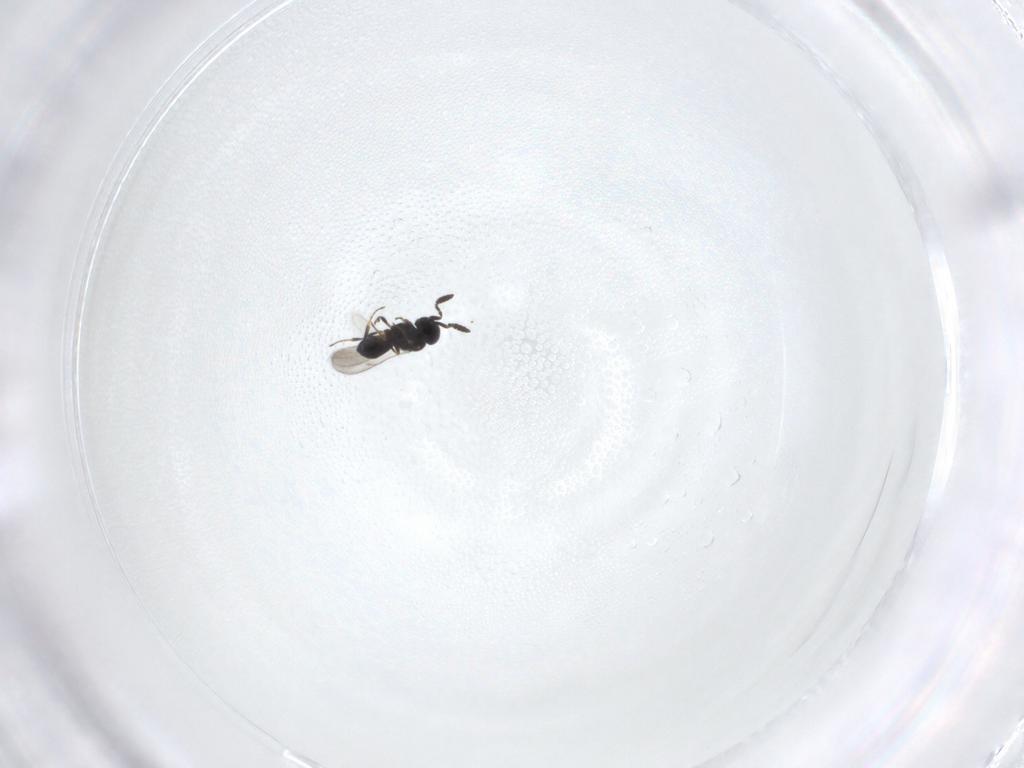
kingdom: Animalia
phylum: Arthropoda
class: Insecta
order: Hymenoptera
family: Scelionidae
